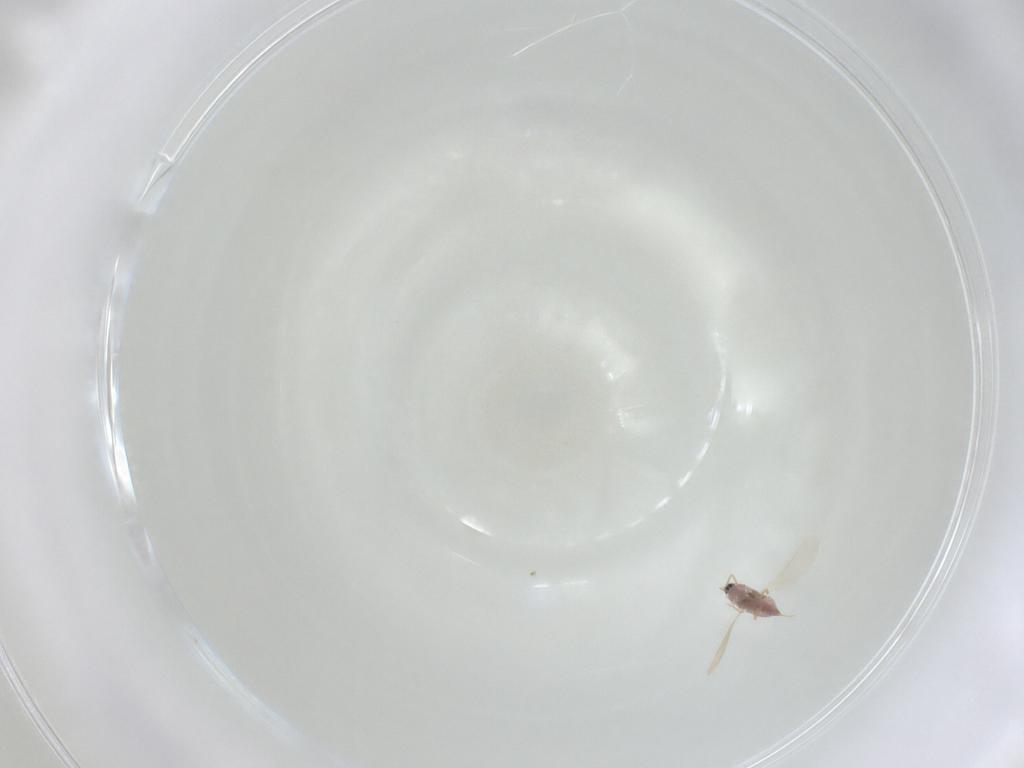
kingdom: Animalia
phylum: Arthropoda
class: Insecta
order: Hemiptera
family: Diaspididae
